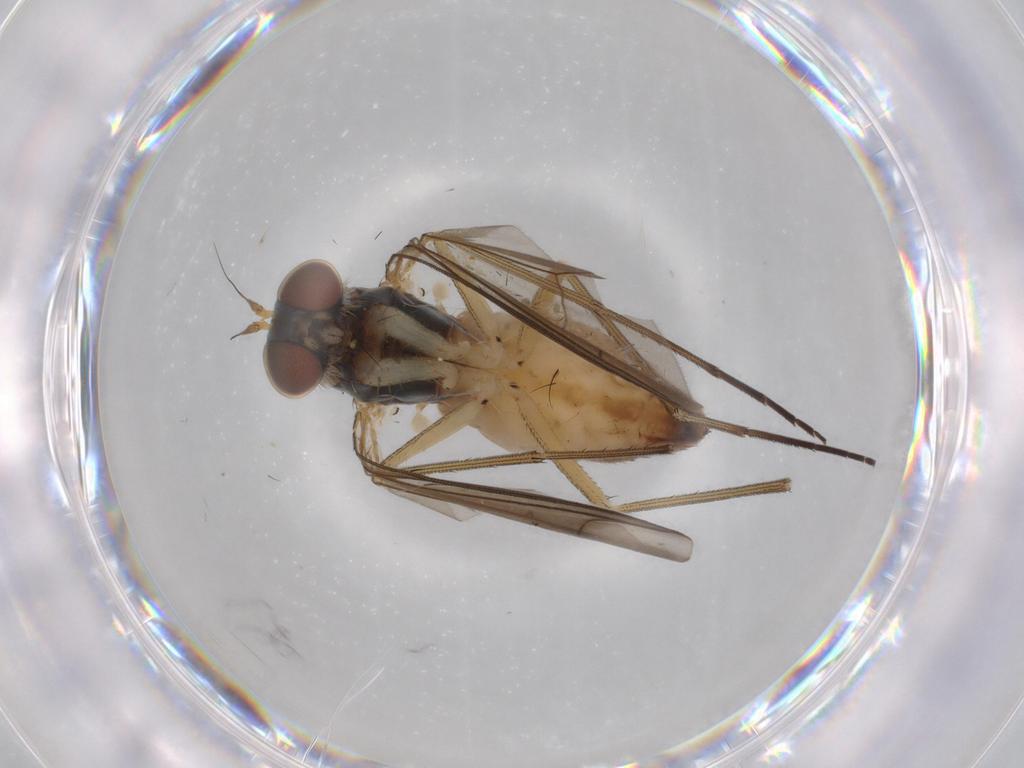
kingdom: Animalia
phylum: Arthropoda
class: Insecta
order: Diptera
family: Dolichopodidae
